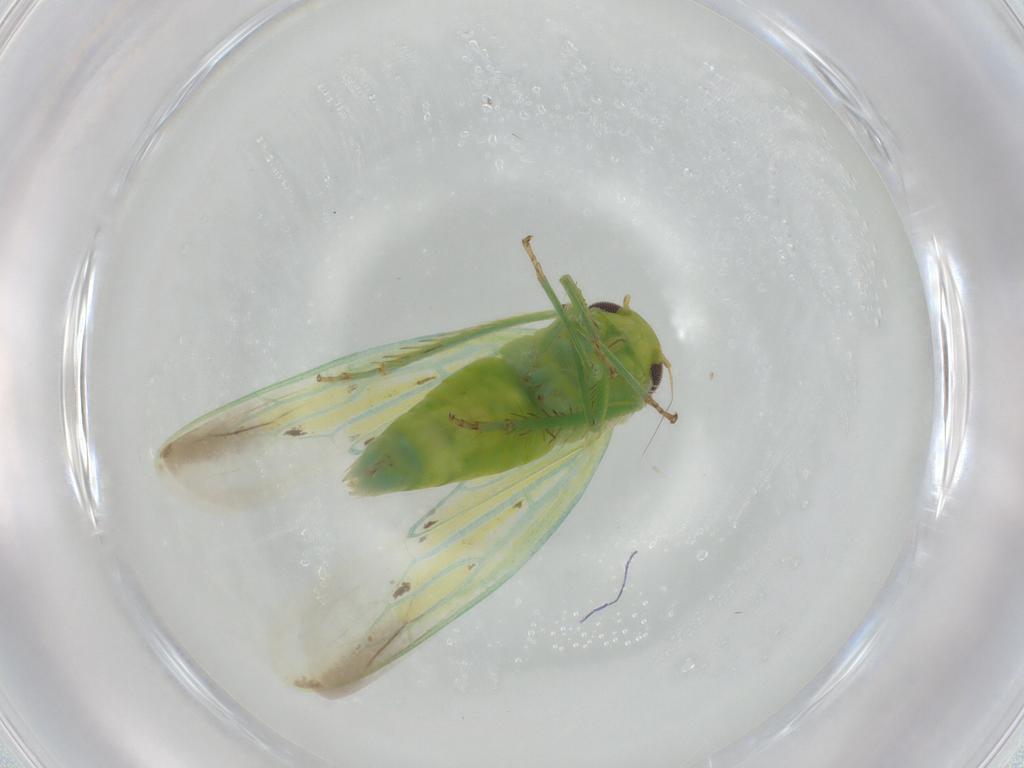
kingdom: Animalia
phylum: Arthropoda
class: Insecta
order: Hemiptera
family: Cicadellidae
